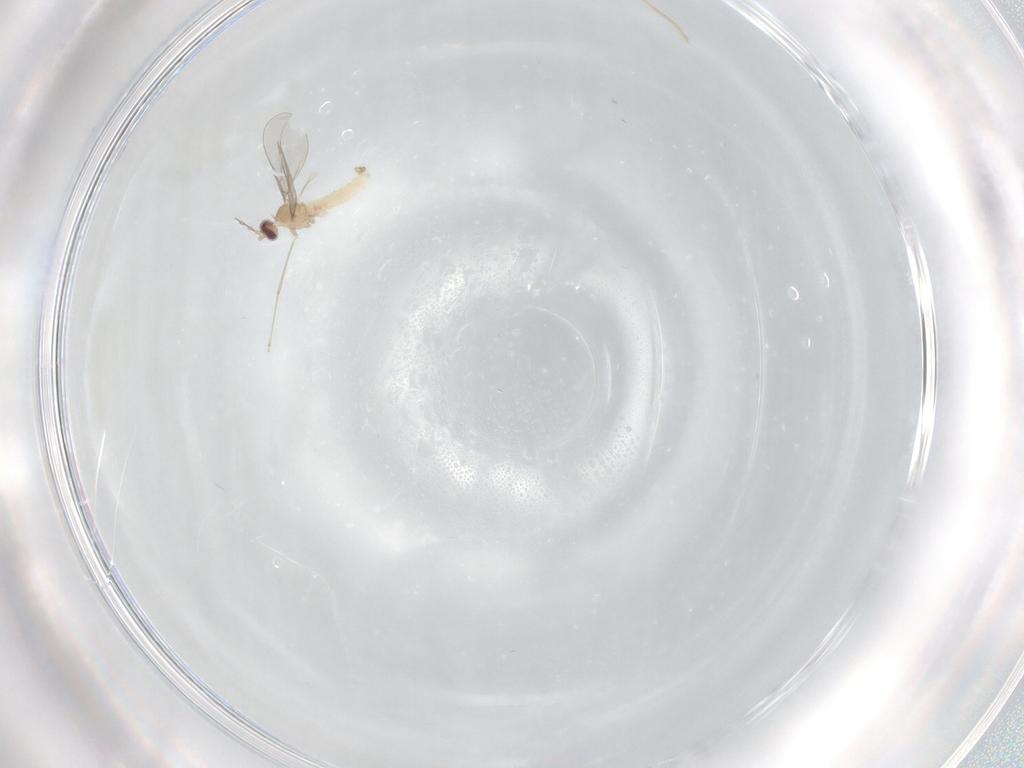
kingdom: Animalia
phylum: Arthropoda
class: Insecta
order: Diptera
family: Cecidomyiidae
